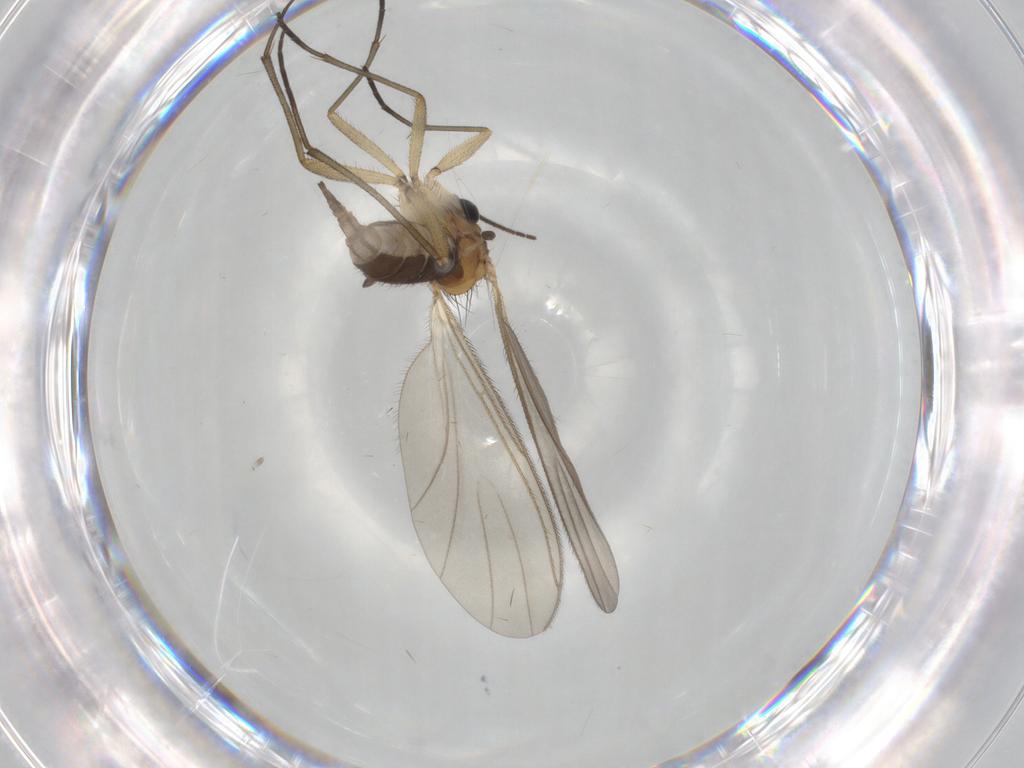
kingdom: Animalia
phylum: Arthropoda
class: Insecta
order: Diptera
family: Sciaridae
